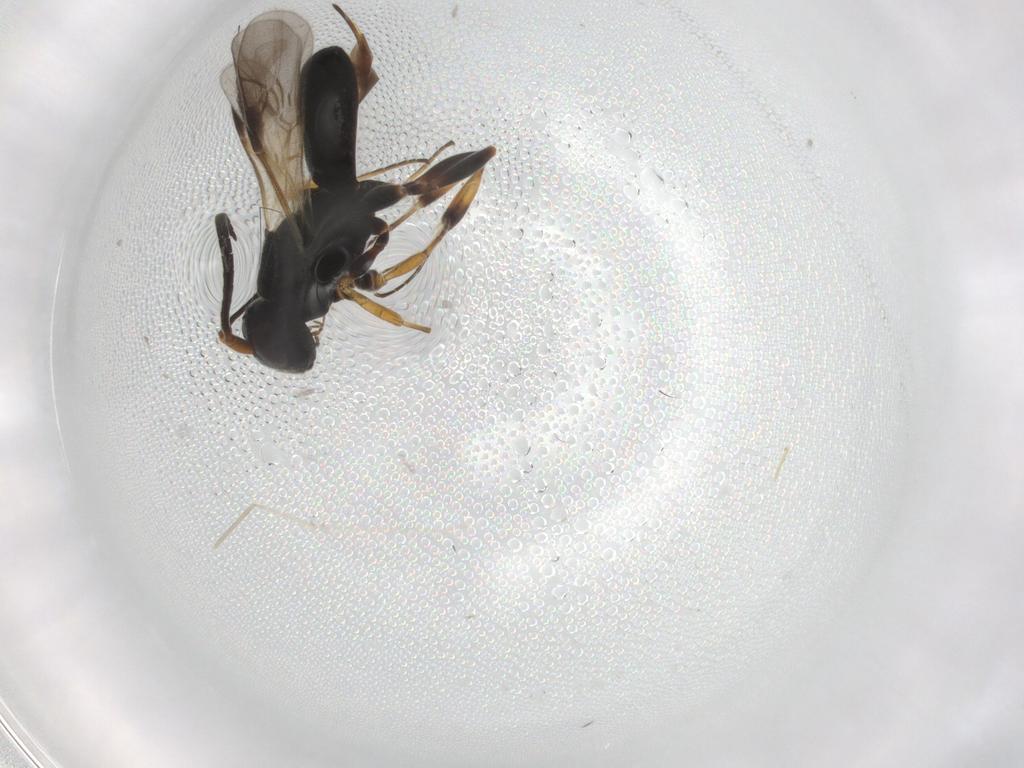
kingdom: Animalia
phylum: Arthropoda
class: Insecta
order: Hymenoptera
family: Braconidae
